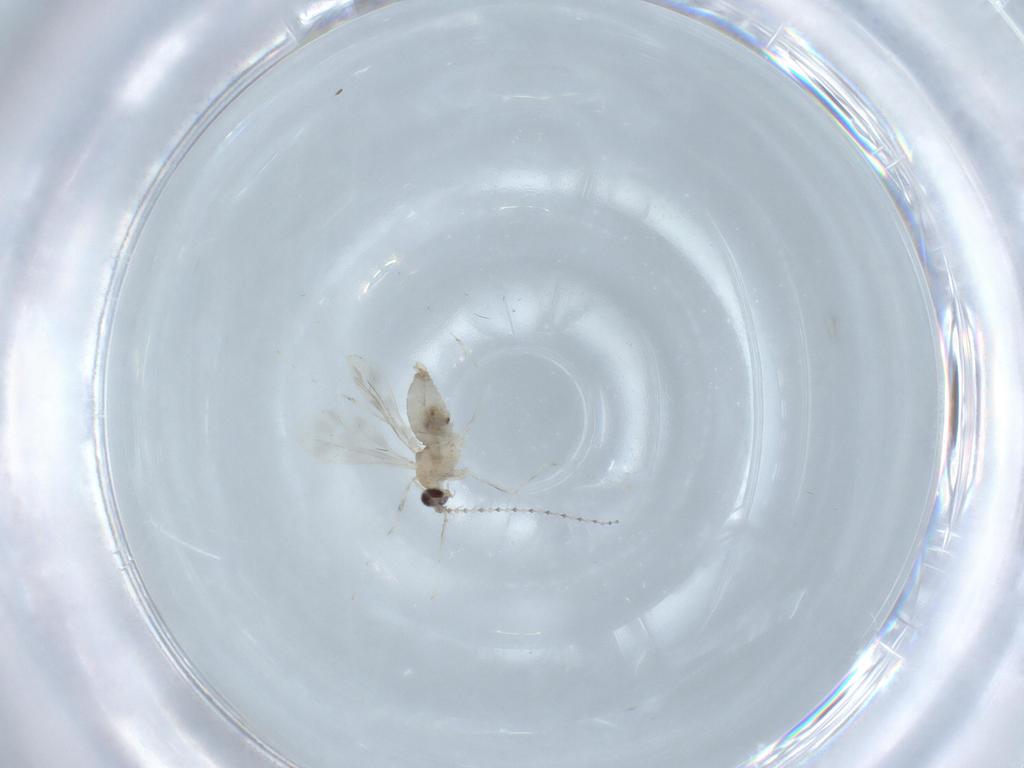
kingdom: Animalia
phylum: Arthropoda
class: Insecta
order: Diptera
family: Cecidomyiidae
